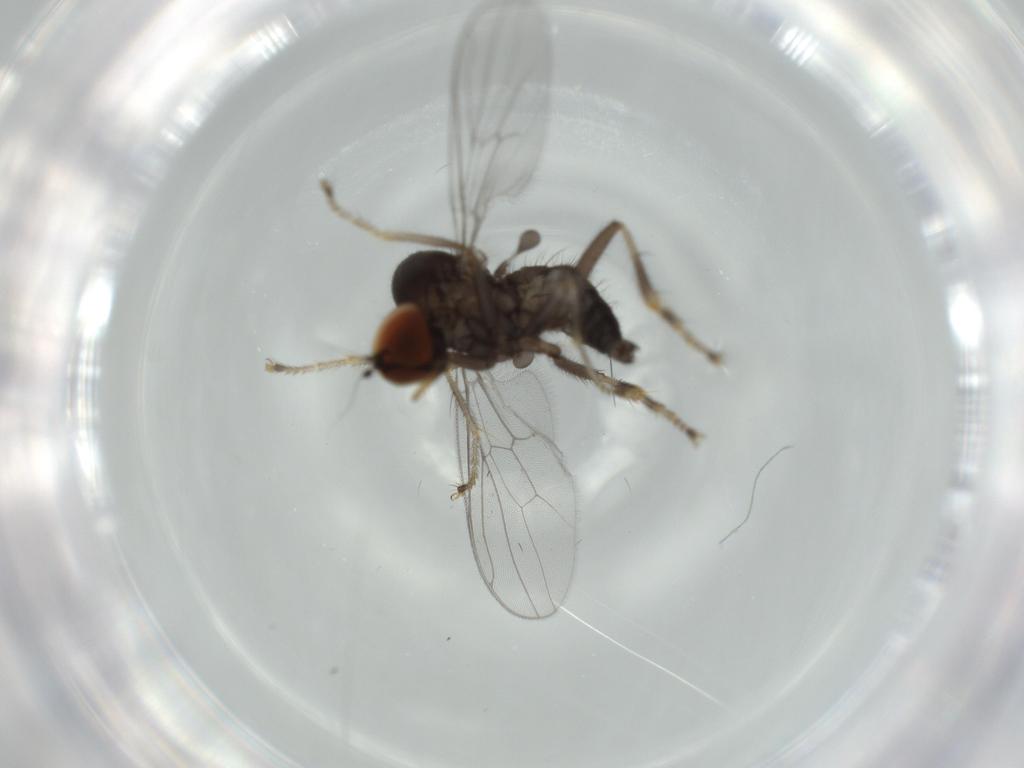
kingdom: Animalia
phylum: Arthropoda
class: Insecta
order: Diptera
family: Hybotidae
